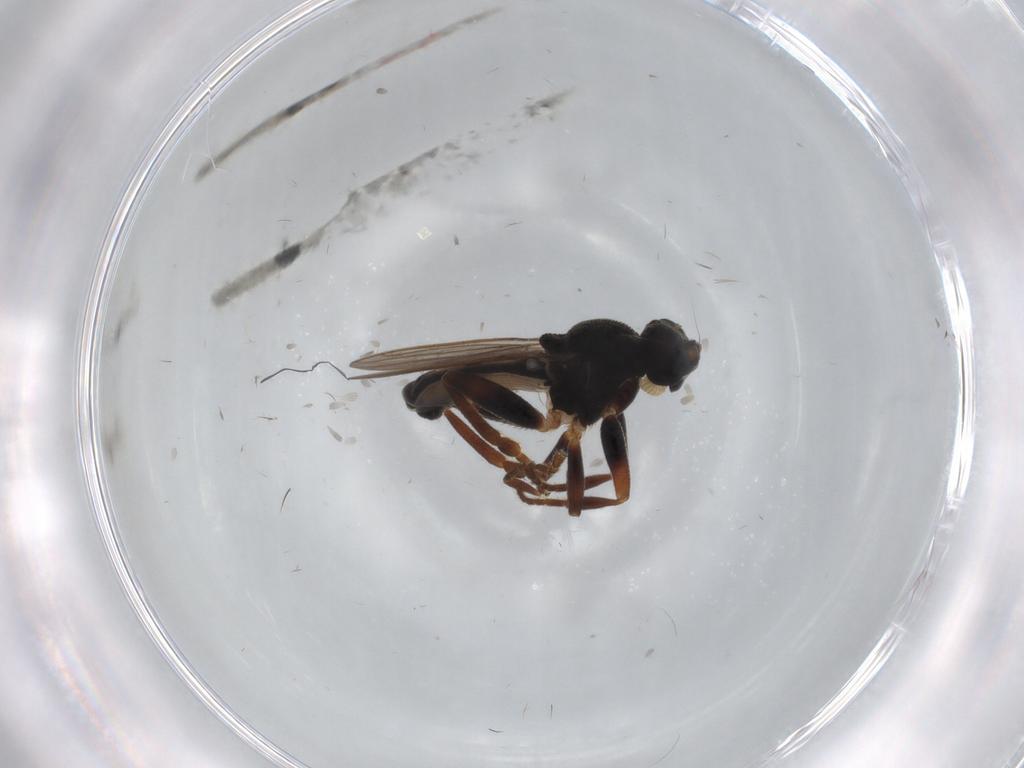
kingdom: Animalia
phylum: Arthropoda
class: Insecta
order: Diptera
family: Sphaeroceridae
